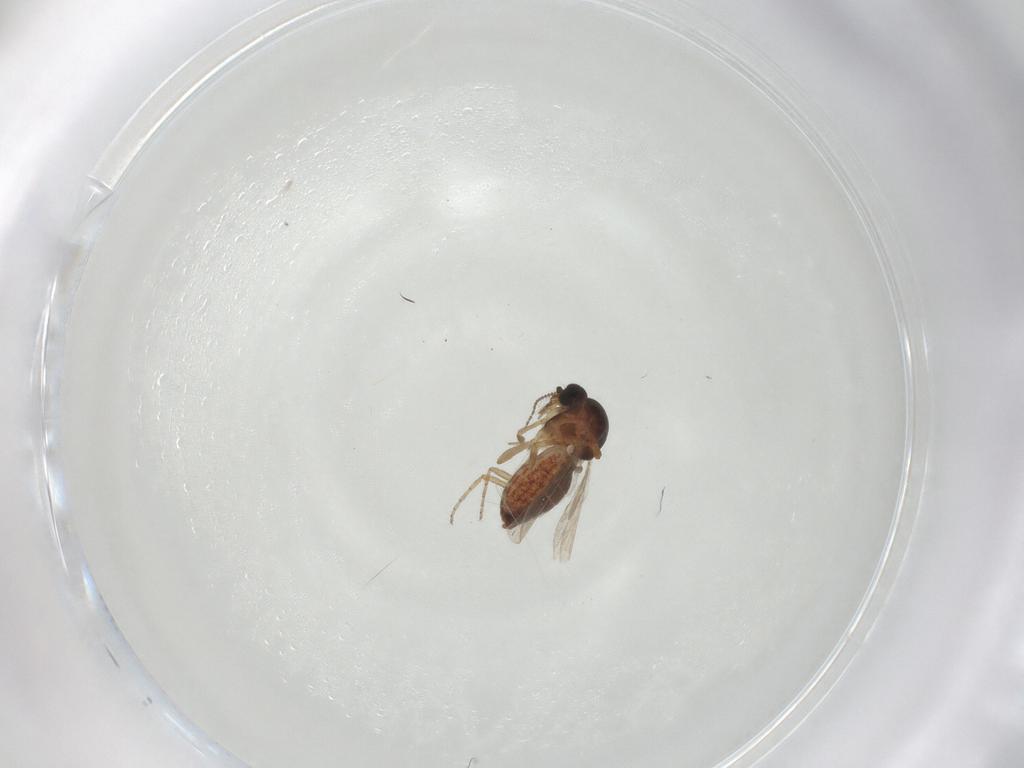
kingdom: Animalia
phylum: Arthropoda
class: Insecta
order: Diptera
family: Ceratopogonidae
